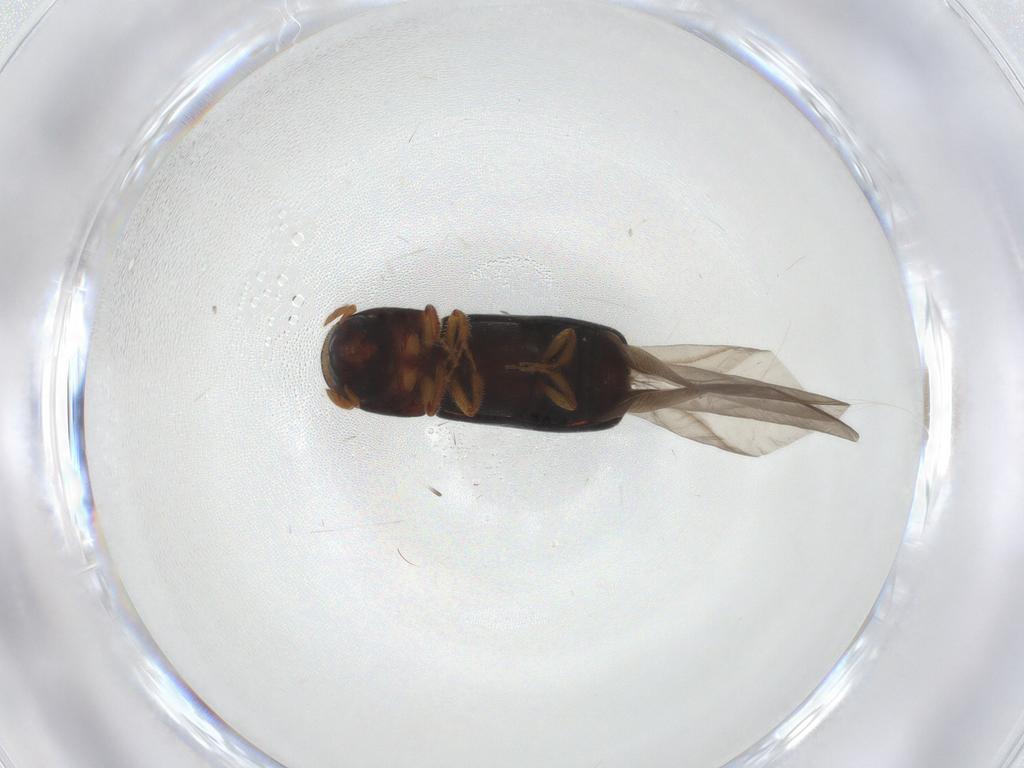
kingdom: Animalia
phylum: Arthropoda
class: Insecta
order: Coleoptera
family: Curculionidae
